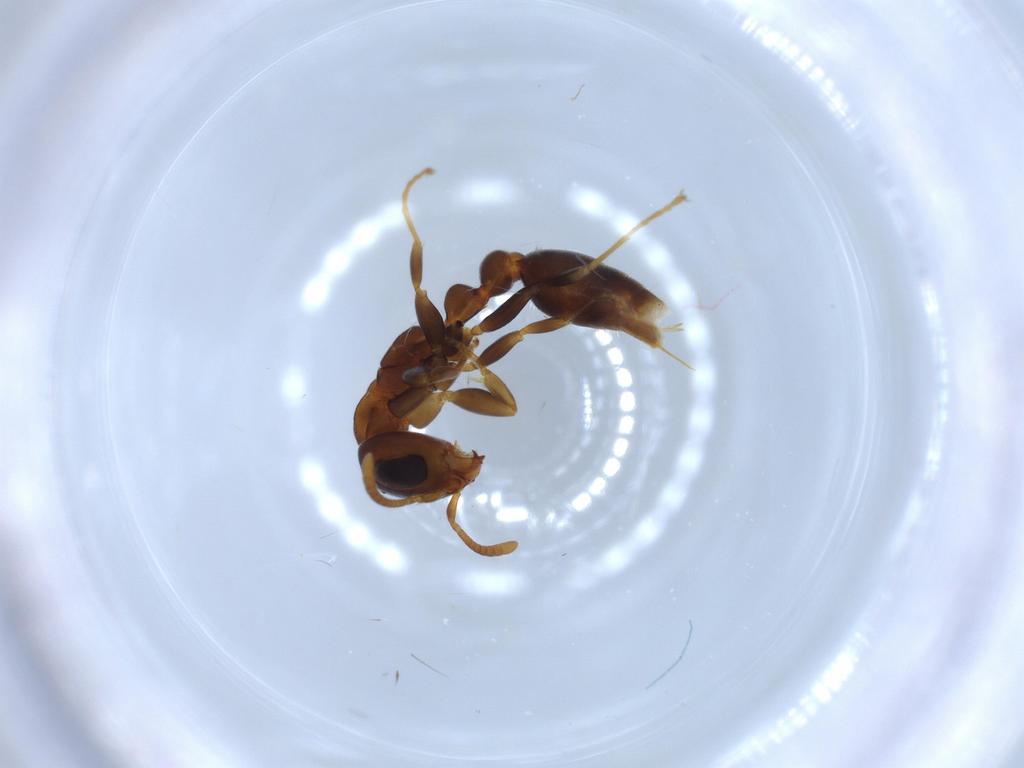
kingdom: Animalia
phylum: Arthropoda
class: Insecta
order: Hymenoptera
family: Formicidae
